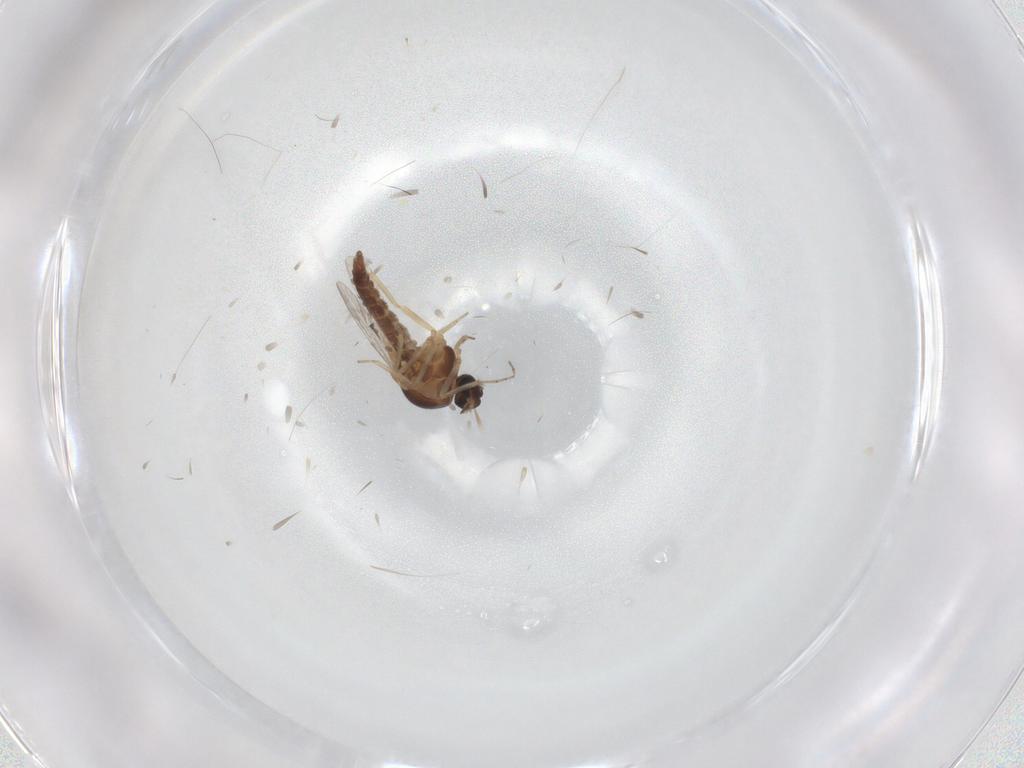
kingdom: Animalia
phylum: Arthropoda
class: Insecta
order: Diptera
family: Ceratopogonidae
